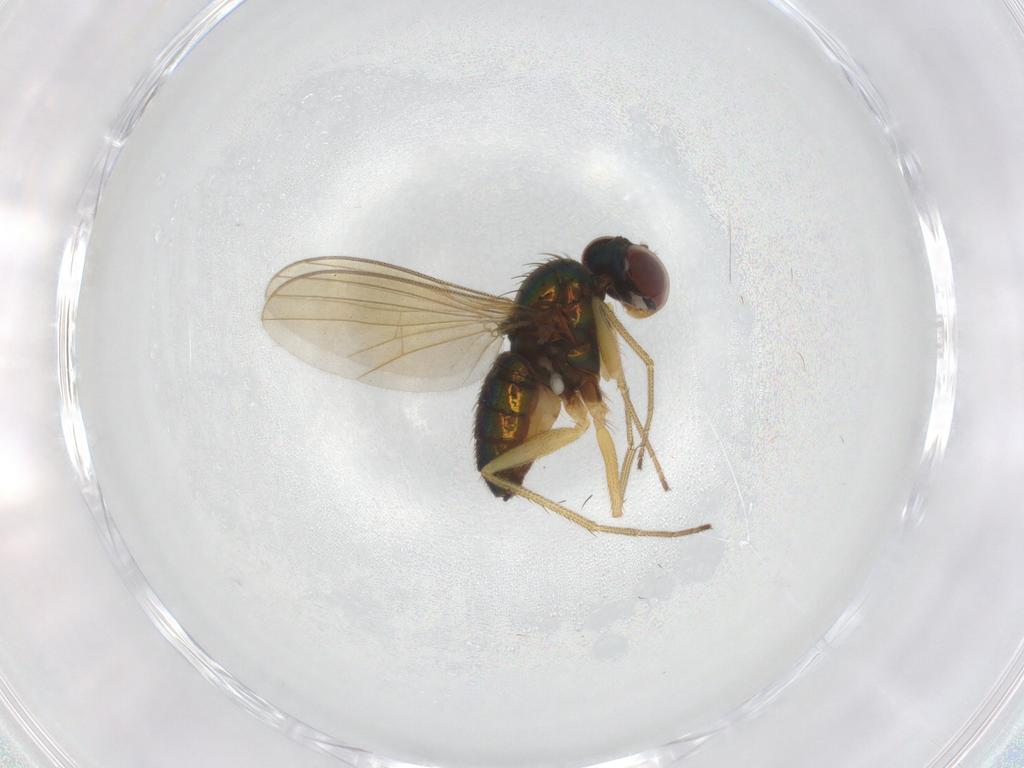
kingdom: Animalia
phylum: Arthropoda
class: Insecta
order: Diptera
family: Dolichopodidae
